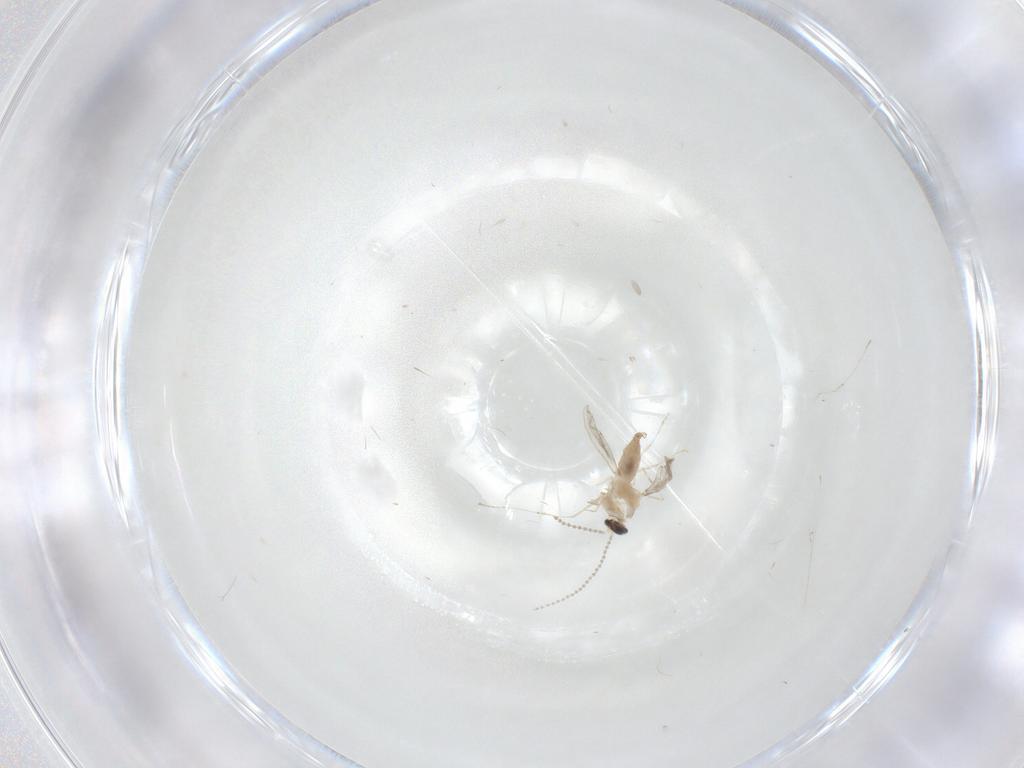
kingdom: Animalia
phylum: Arthropoda
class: Insecta
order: Diptera
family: Cecidomyiidae
